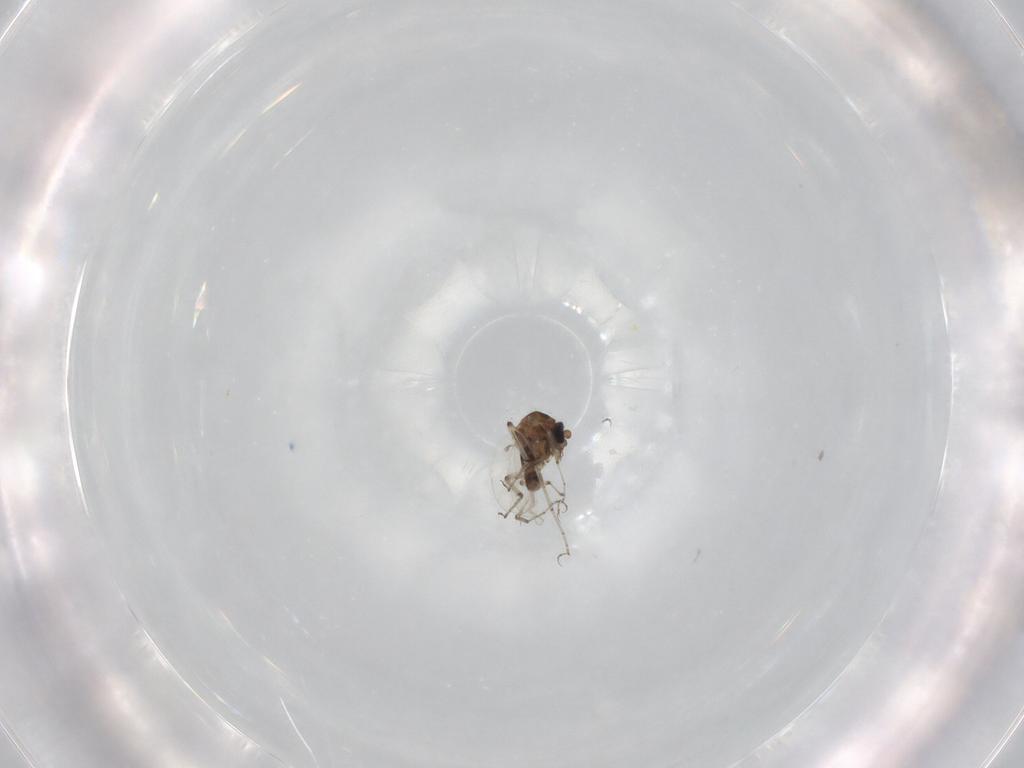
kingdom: Animalia
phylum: Arthropoda
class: Insecta
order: Diptera
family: Ceratopogonidae
